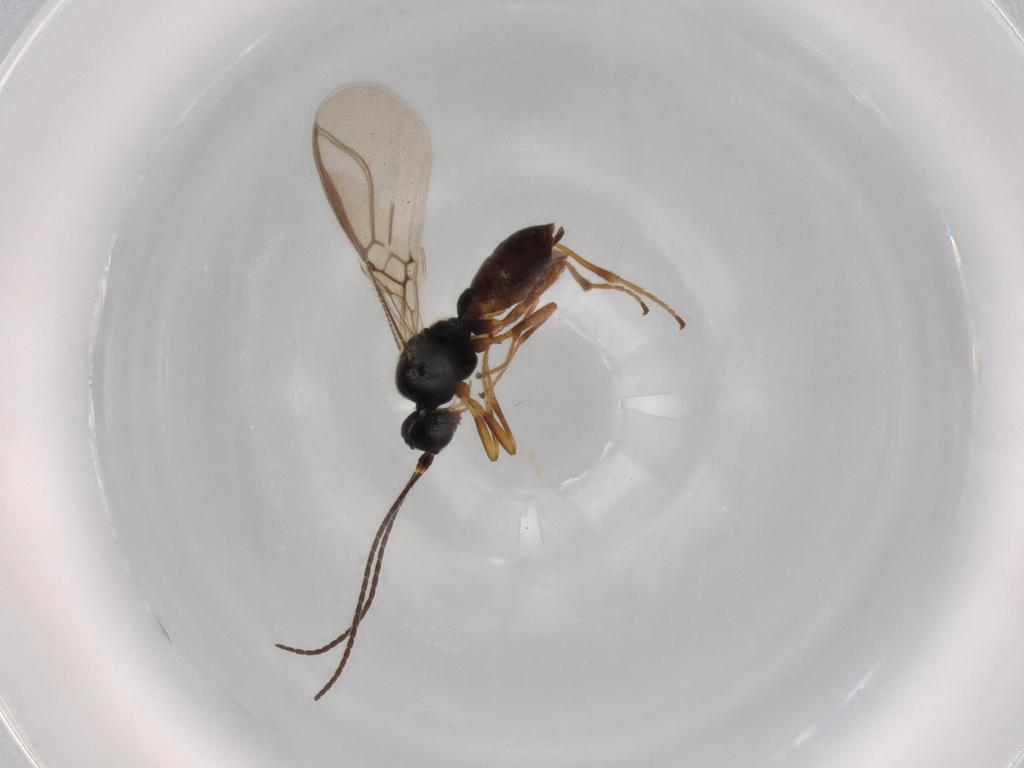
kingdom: Animalia
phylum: Arthropoda
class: Insecta
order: Hymenoptera
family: Braconidae
